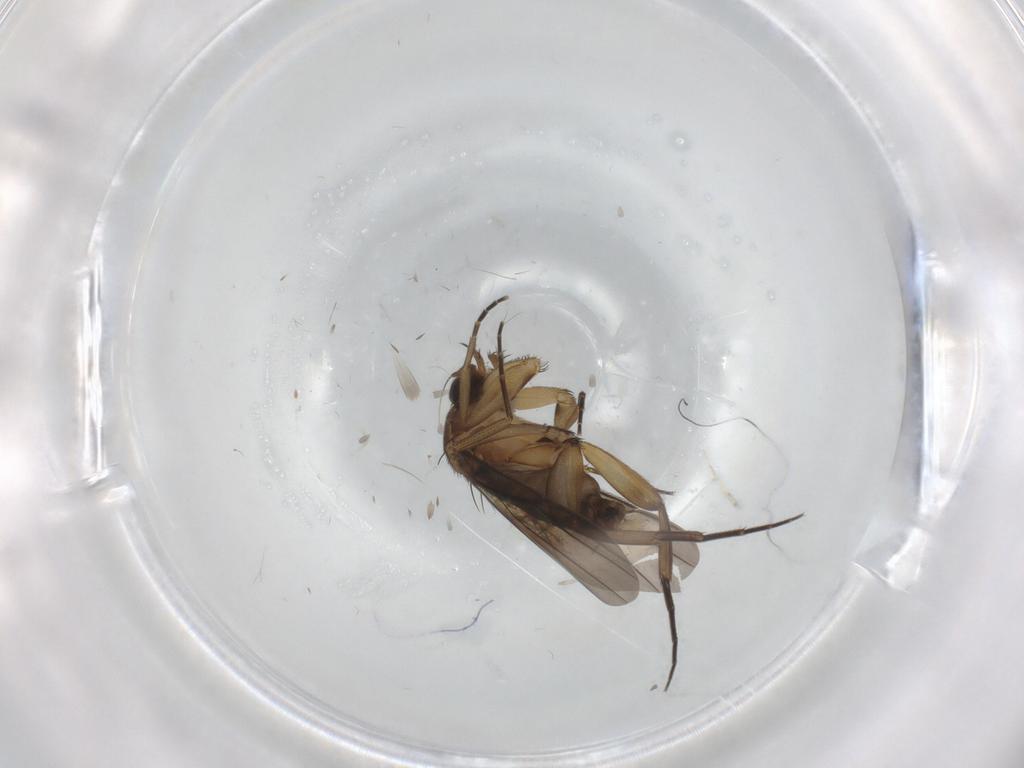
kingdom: Animalia
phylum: Arthropoda
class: Insecta
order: Diptera
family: Phoridae
